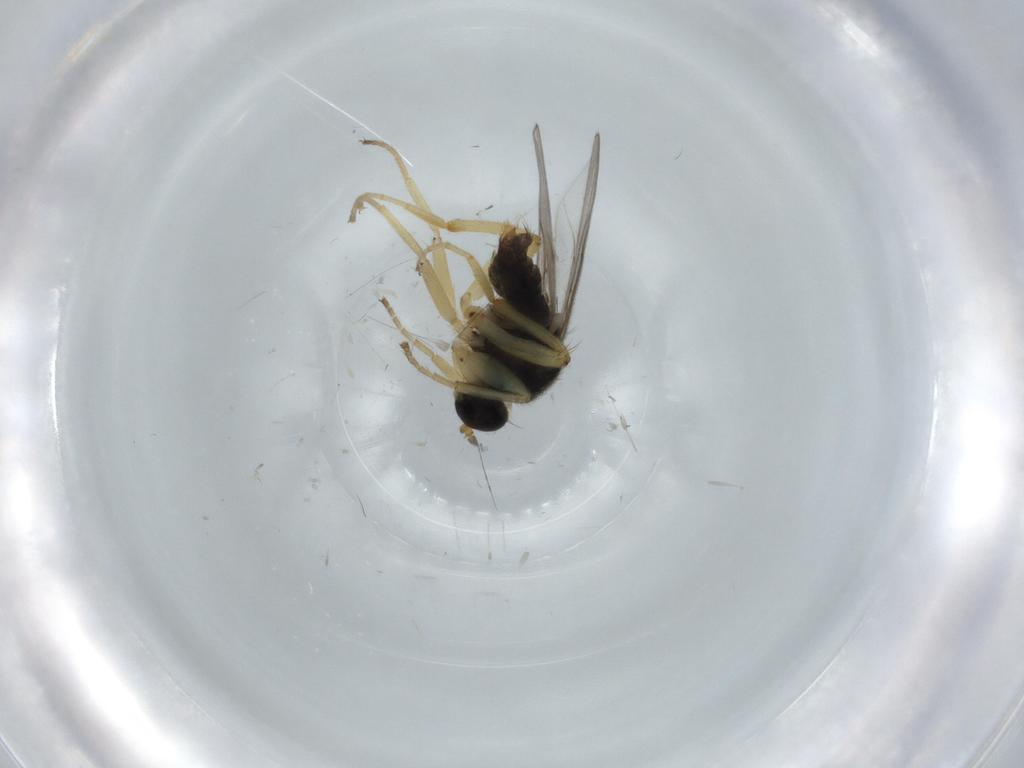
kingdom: Animalia
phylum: Arthropoda
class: Insecta
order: Diptera
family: Hybotidae
